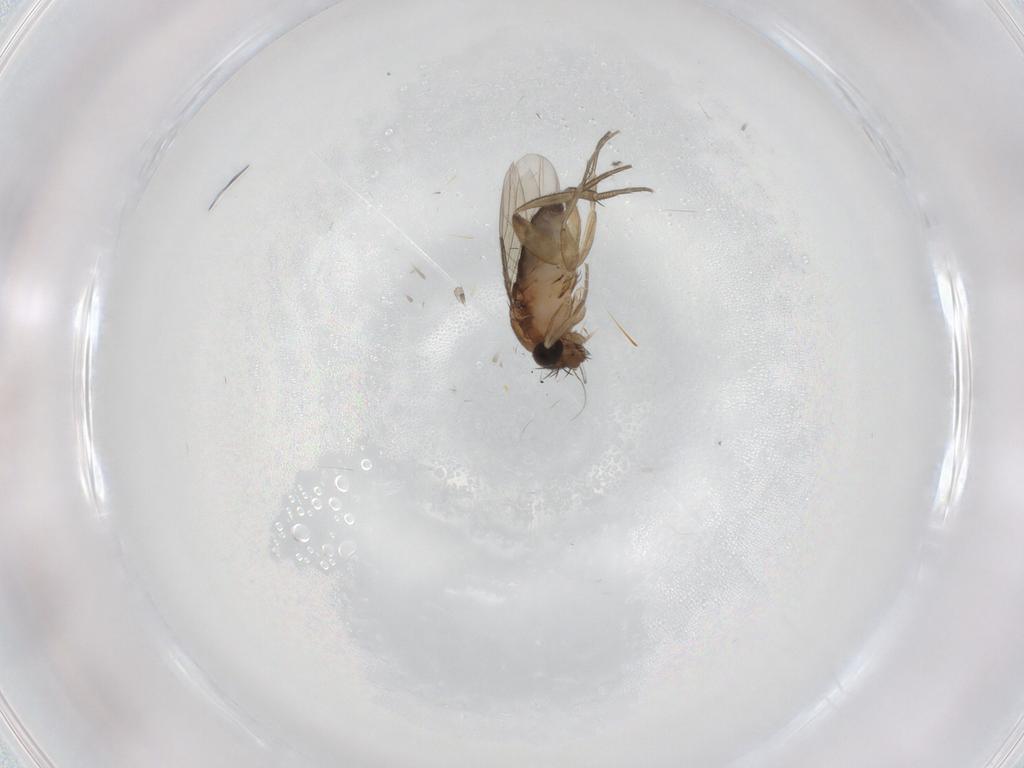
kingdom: Animalia
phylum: Arthropoda
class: Insecta
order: Diptera
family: Phoridae
